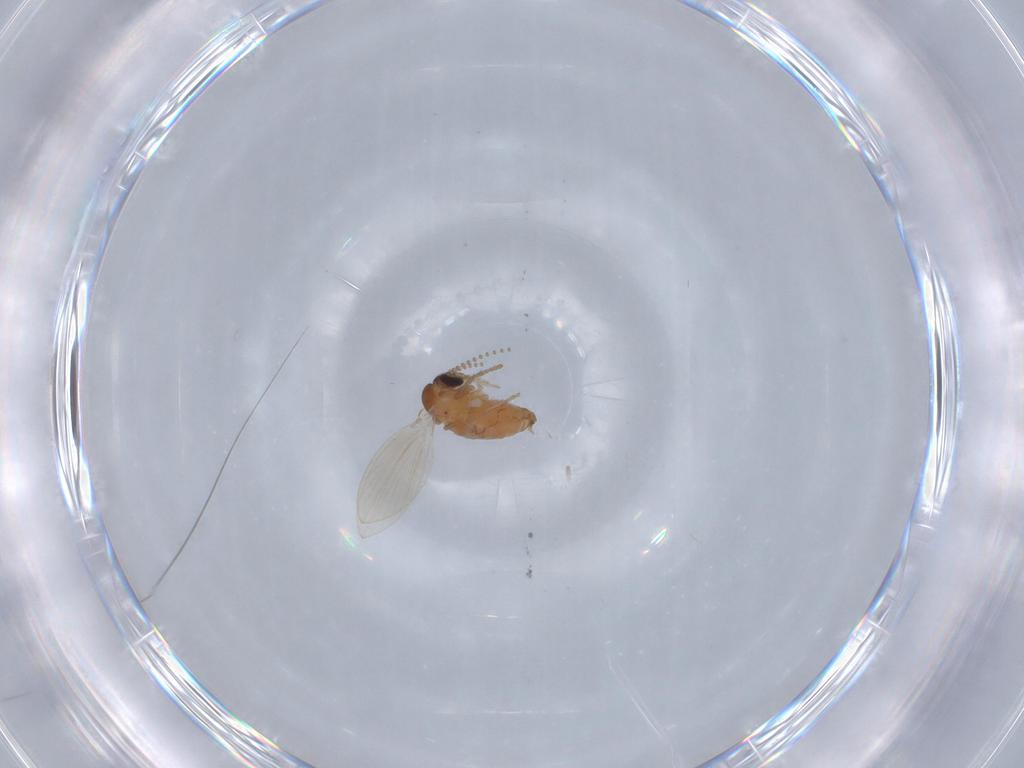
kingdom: Animalia
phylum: Arthropoda
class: Insecta
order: Diptera
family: Psychodidae
